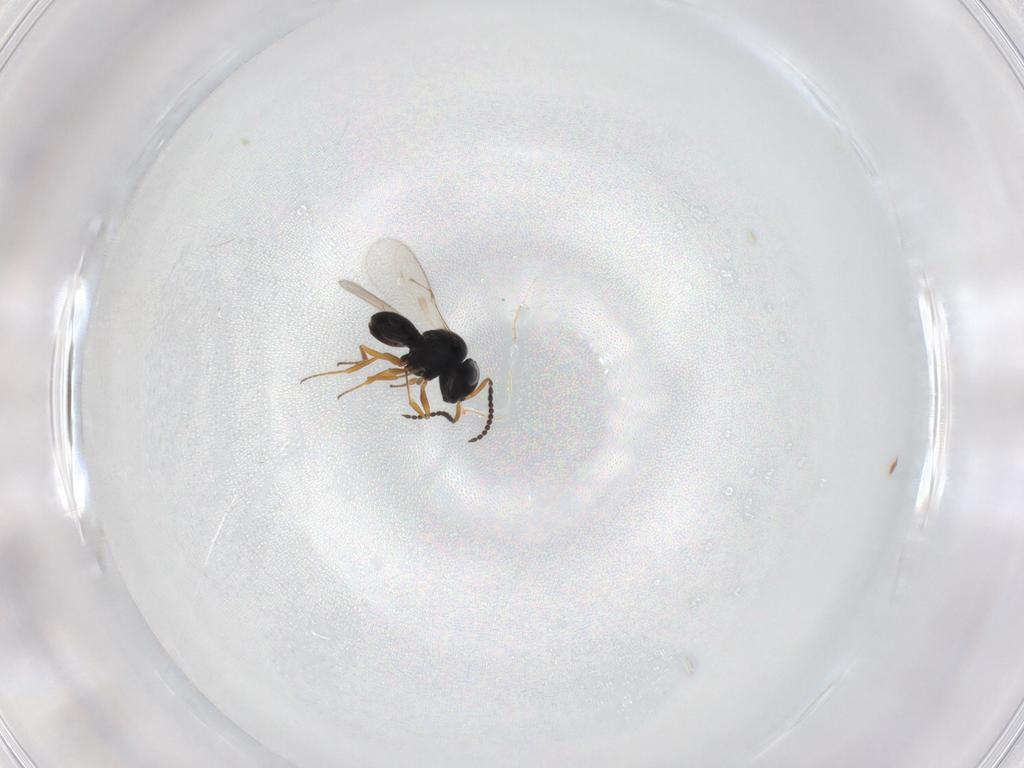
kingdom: Animalia
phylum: Arthropoda
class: Insecta
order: Hymenoptera
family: Scelionidae
